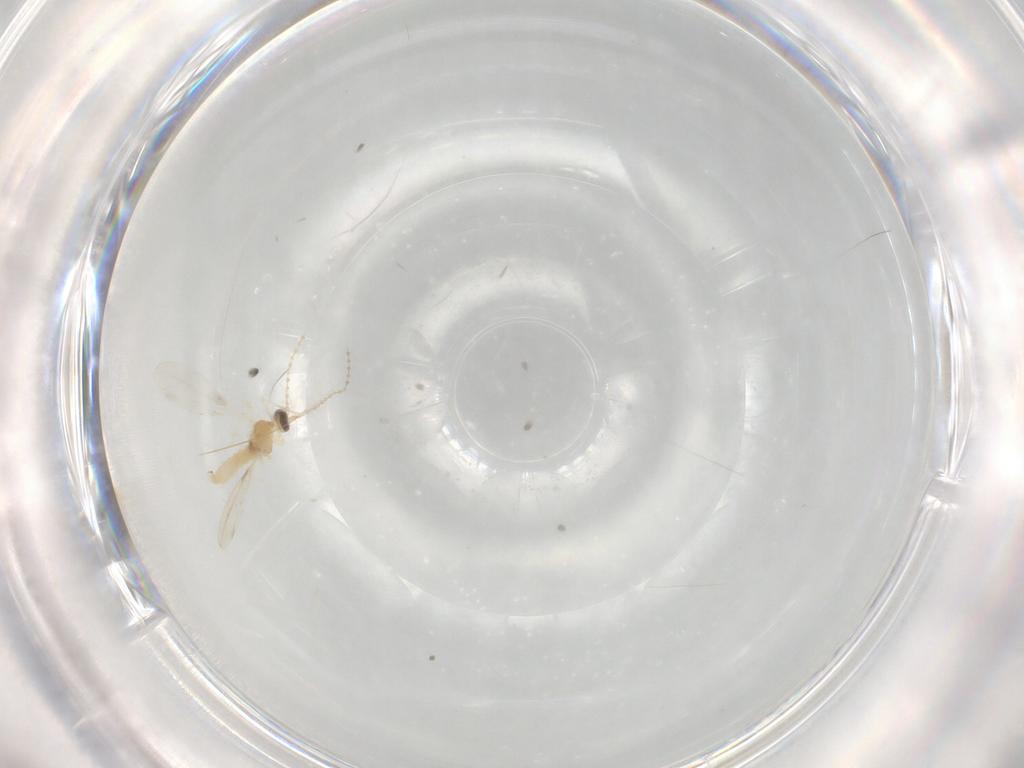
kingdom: Animalia
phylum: Arthropoda
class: Insecta
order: Diptera
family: Cecidomyiidae
